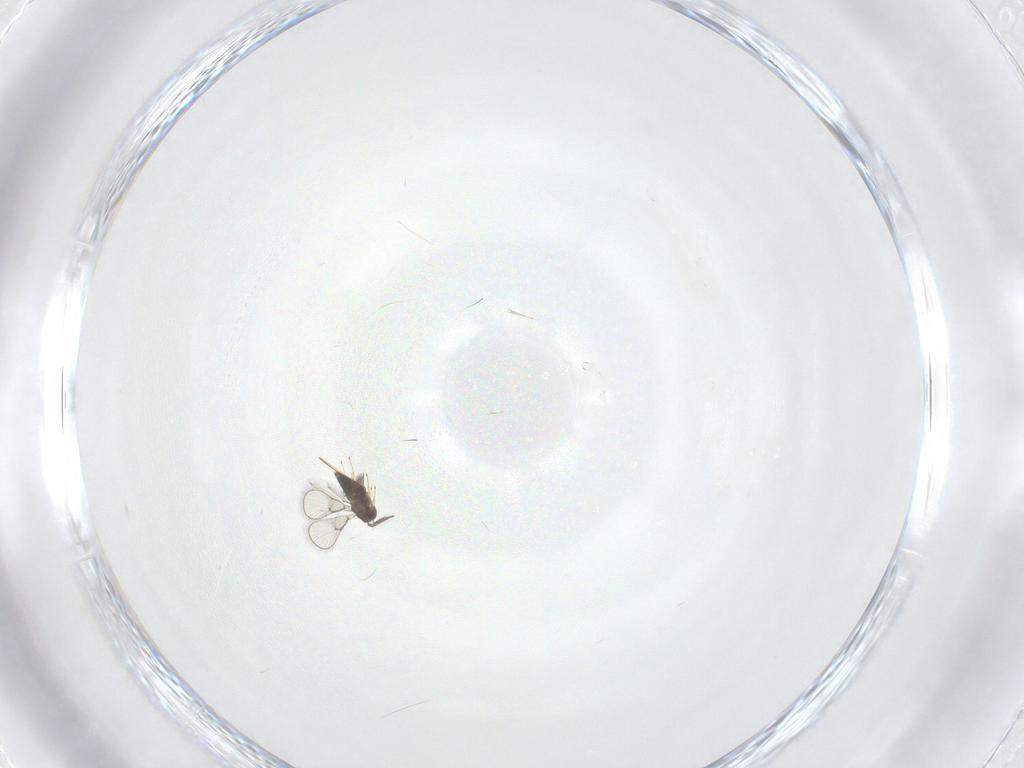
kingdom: Animalia
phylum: Arthropoda
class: Insecta
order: Hymenoptera
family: Trichogrammatidae
